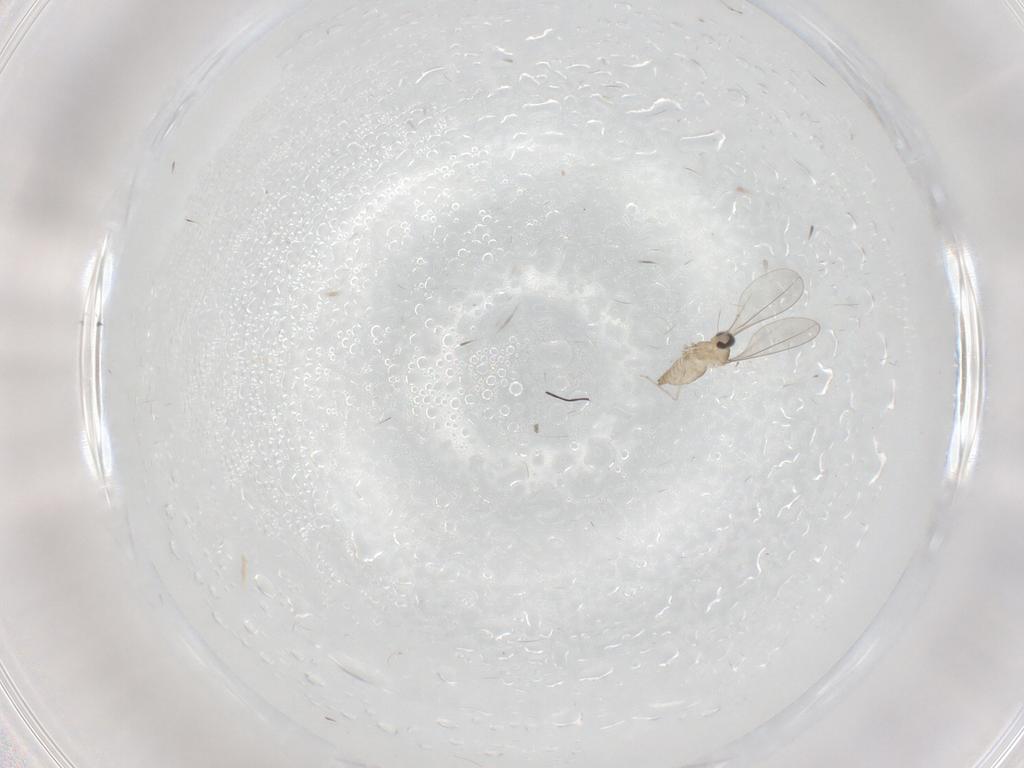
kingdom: Animalia
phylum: Arthropoda
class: Insecta
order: Diptera
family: Cecidomyiidae
